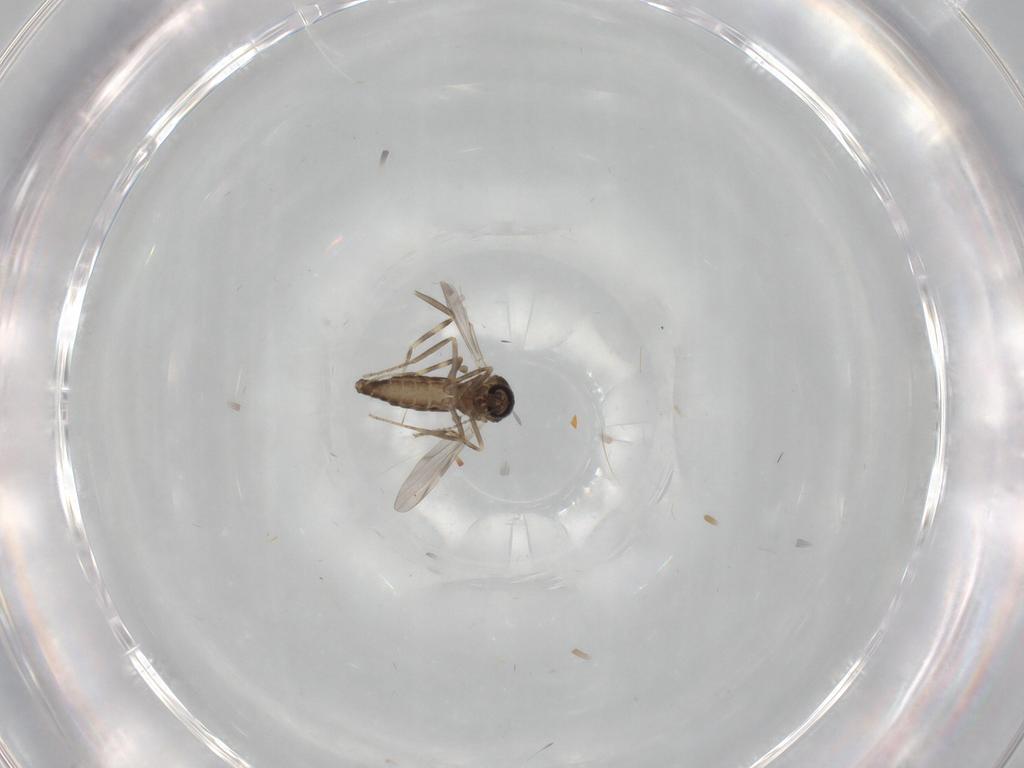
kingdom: Animalia
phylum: Arthropoda
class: Insecta
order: Diptera
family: Ceratopogonidae
